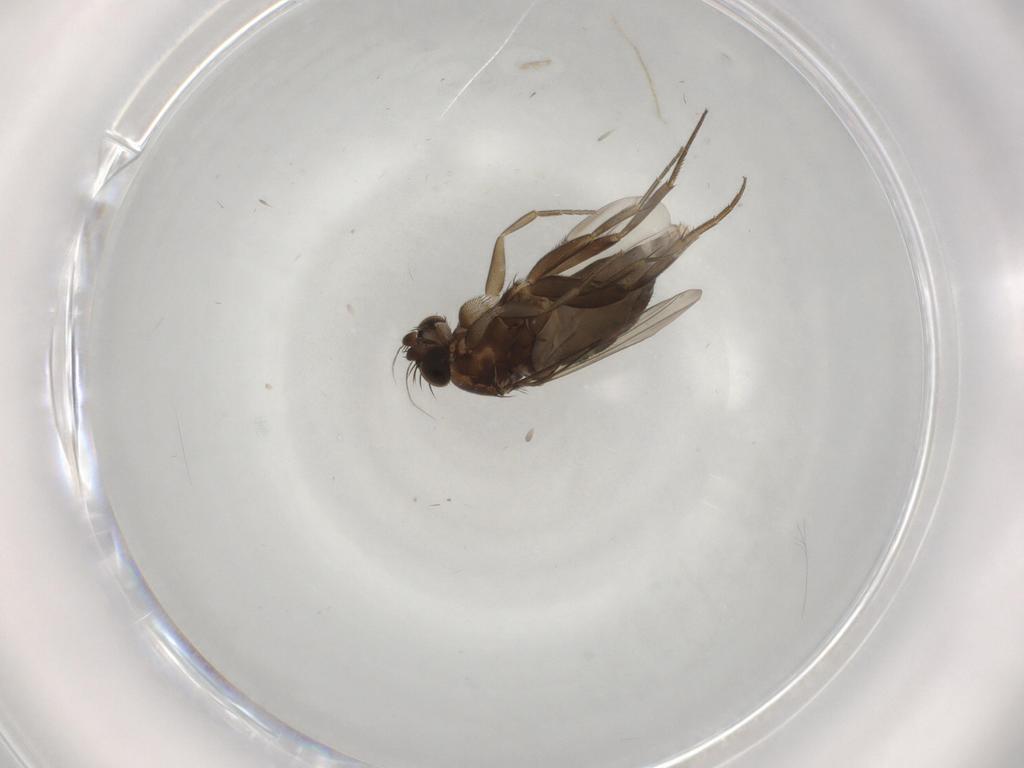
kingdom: Animalia
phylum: Arthropoda
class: Insecta
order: Diptera
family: Phoridae
